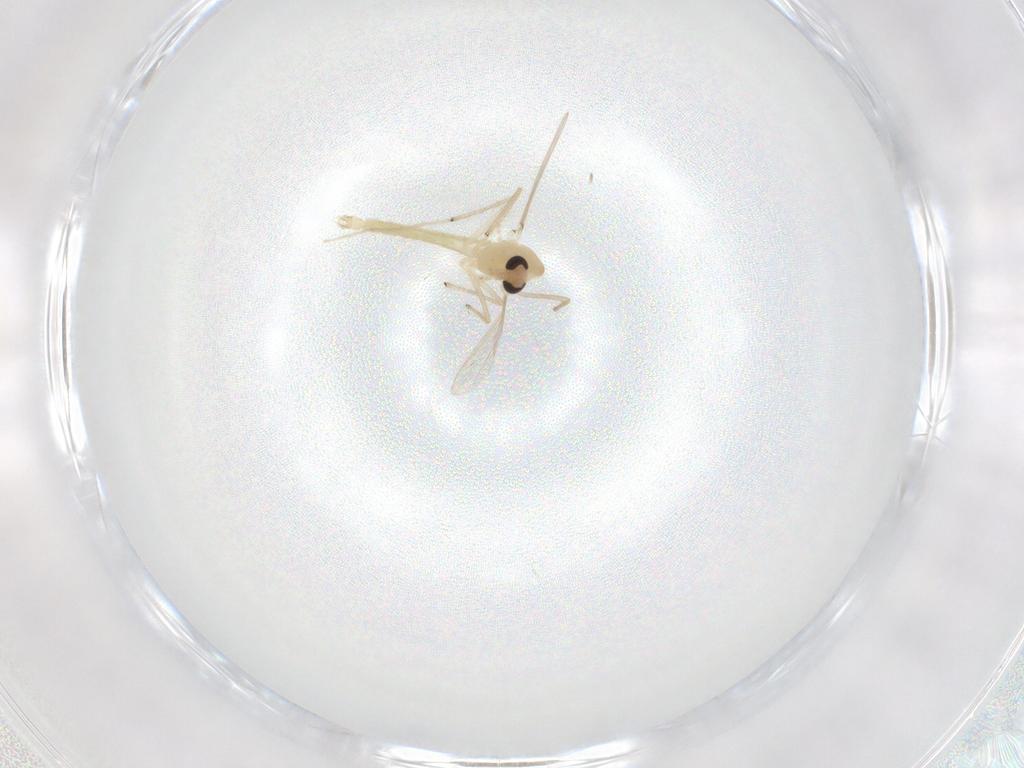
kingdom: Animalia
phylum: Arthropoda
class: Insecta
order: Diptera
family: Chironomidae
